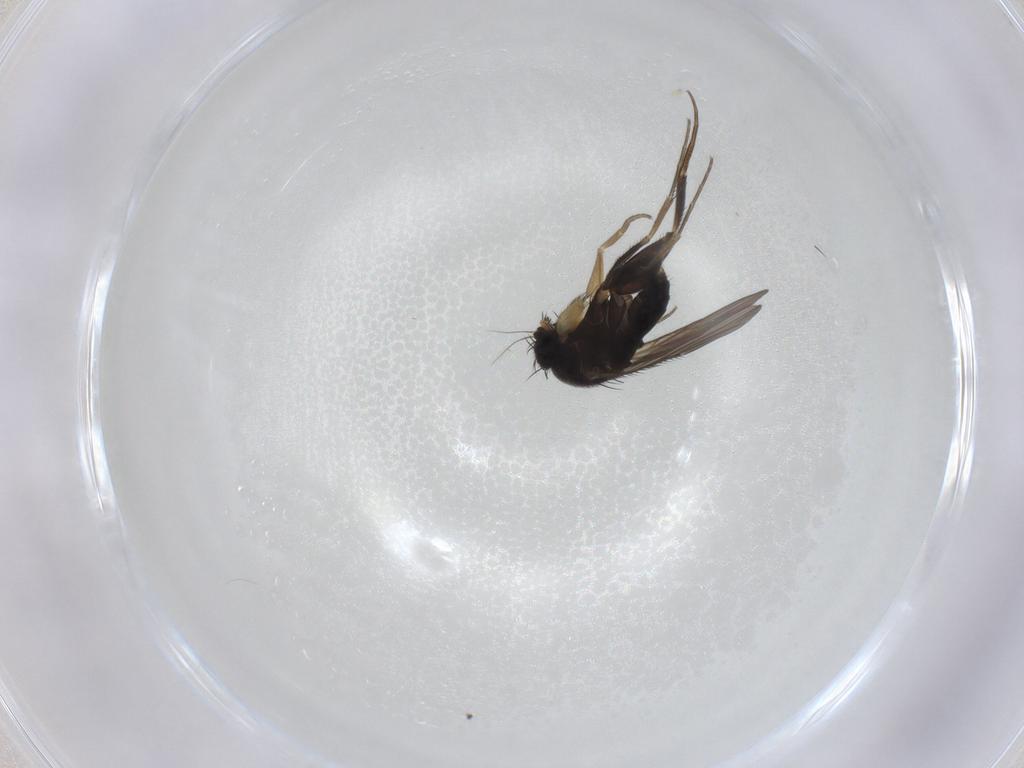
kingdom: Animalia
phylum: Arthropoda
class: Insecta
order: Diptera
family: Phoridae
